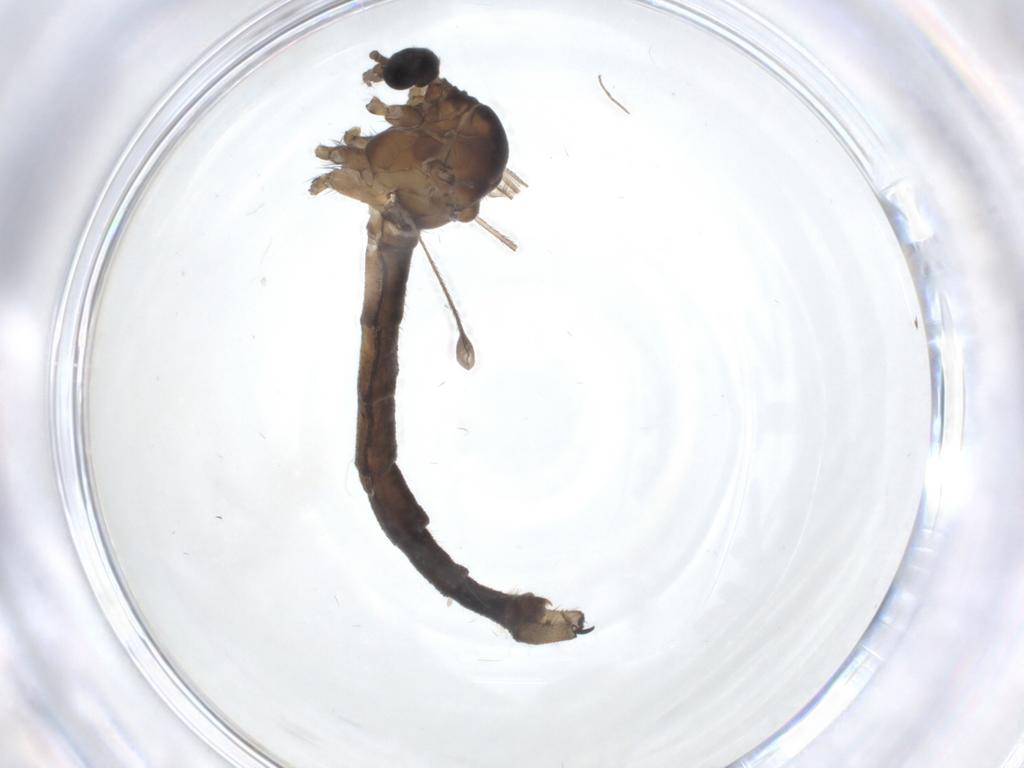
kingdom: Animalia
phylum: Arthropoda
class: Insecta
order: Diptera
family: Limoniidae
